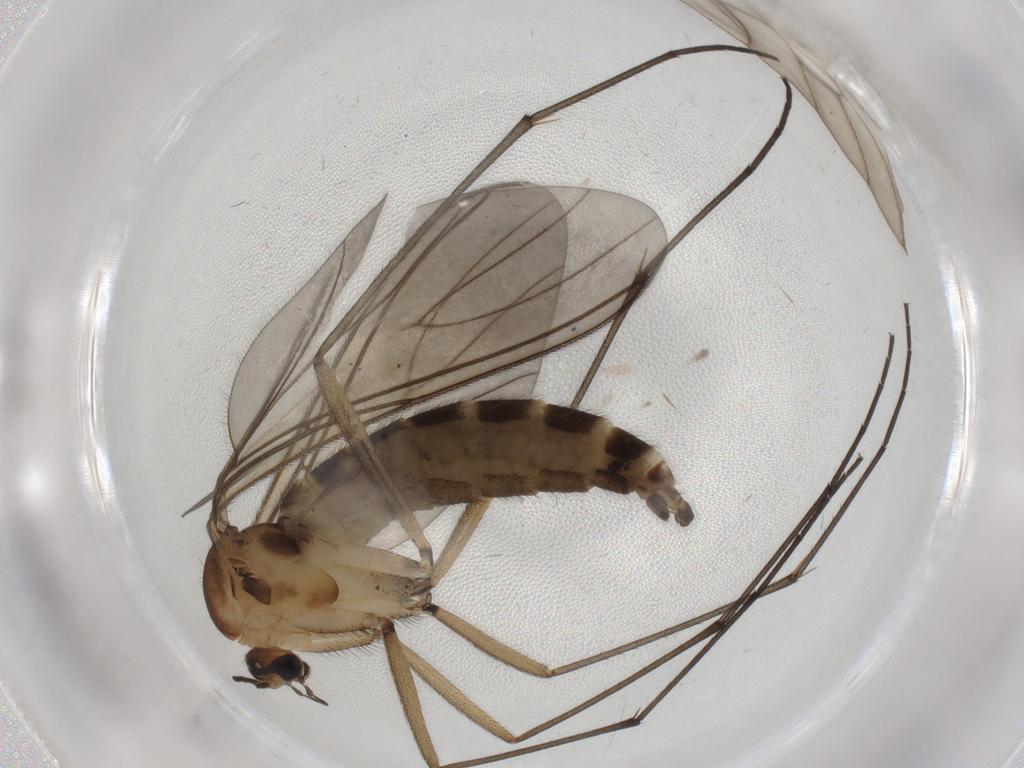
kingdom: Animalia
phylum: Arthropoda
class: Insecta
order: Diptera
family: Sciaridae
